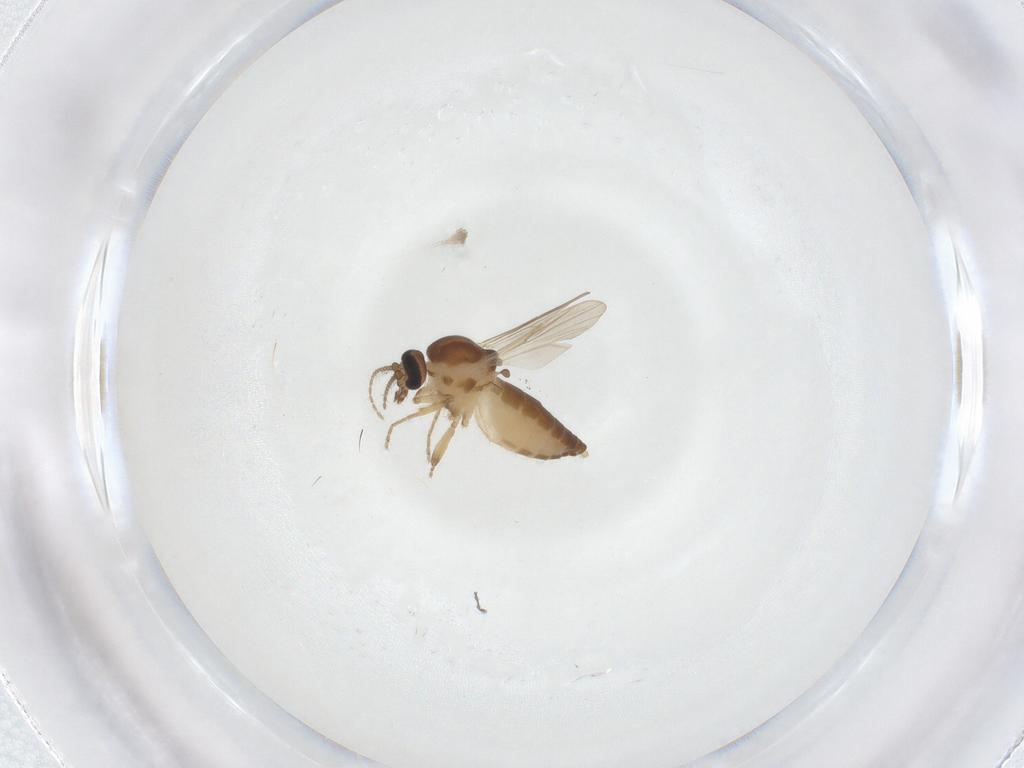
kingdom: Animalia
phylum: Arthropoda
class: Insecta
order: Diptera
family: Ceratopogonidae
